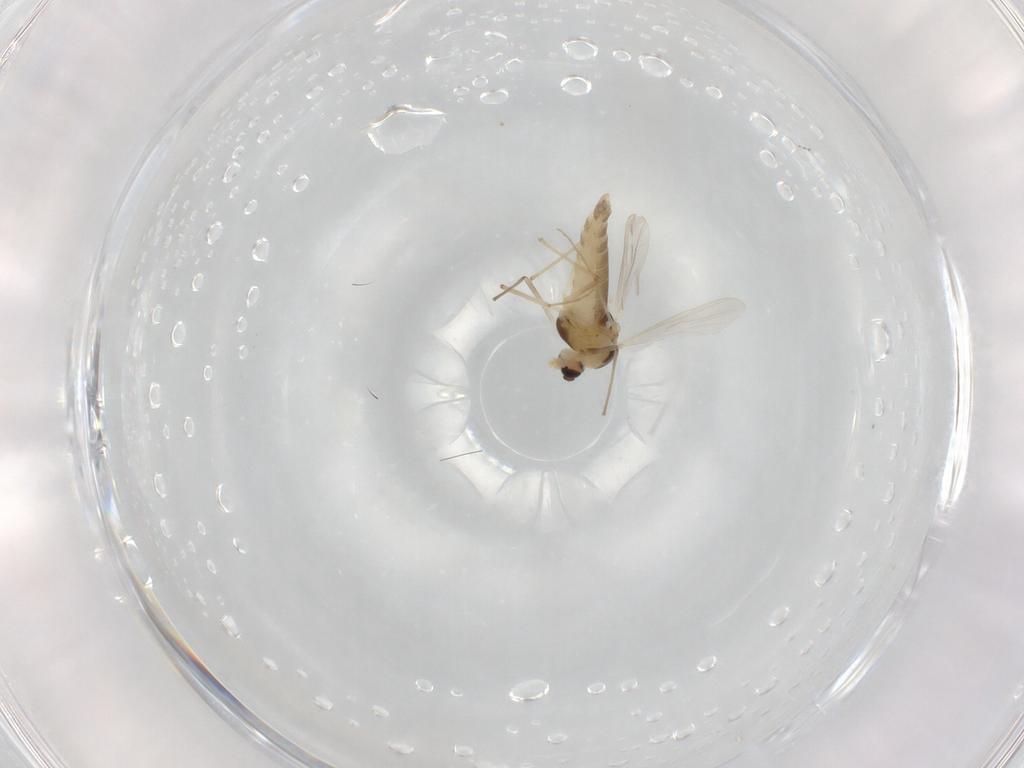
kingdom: Animalia
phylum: Arthropoda
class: Insecta
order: Diptera
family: Chironomidae
